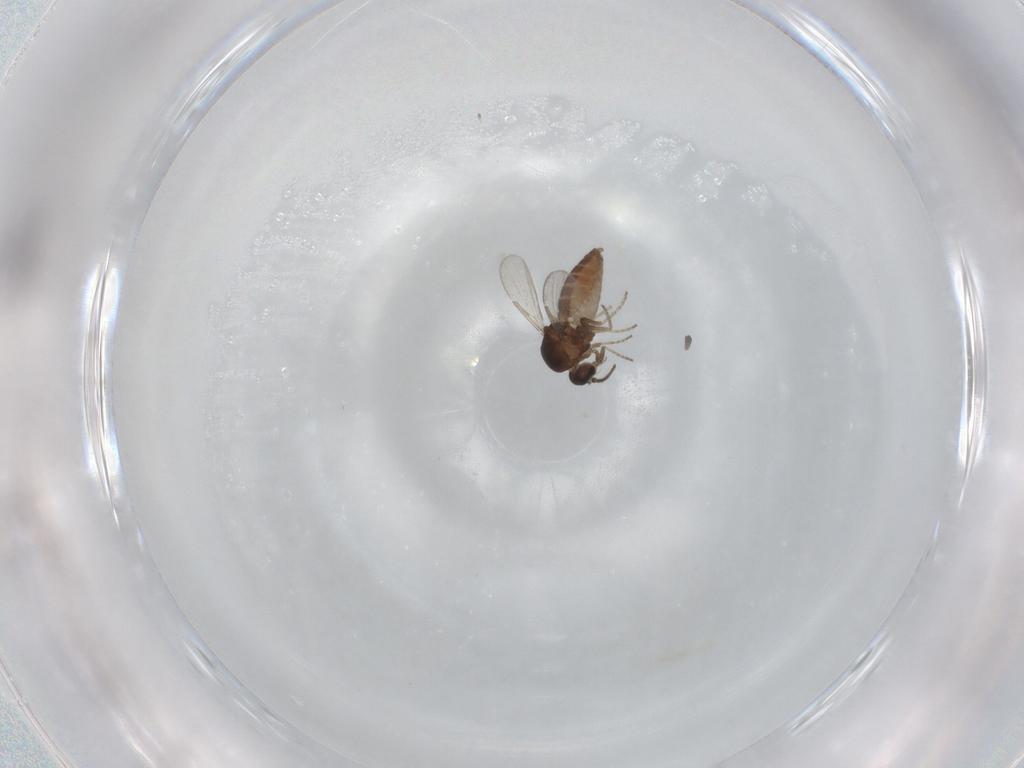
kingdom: Animalia
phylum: Arthropoda
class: Insecta
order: Diptera
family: Ceratopogonidae
